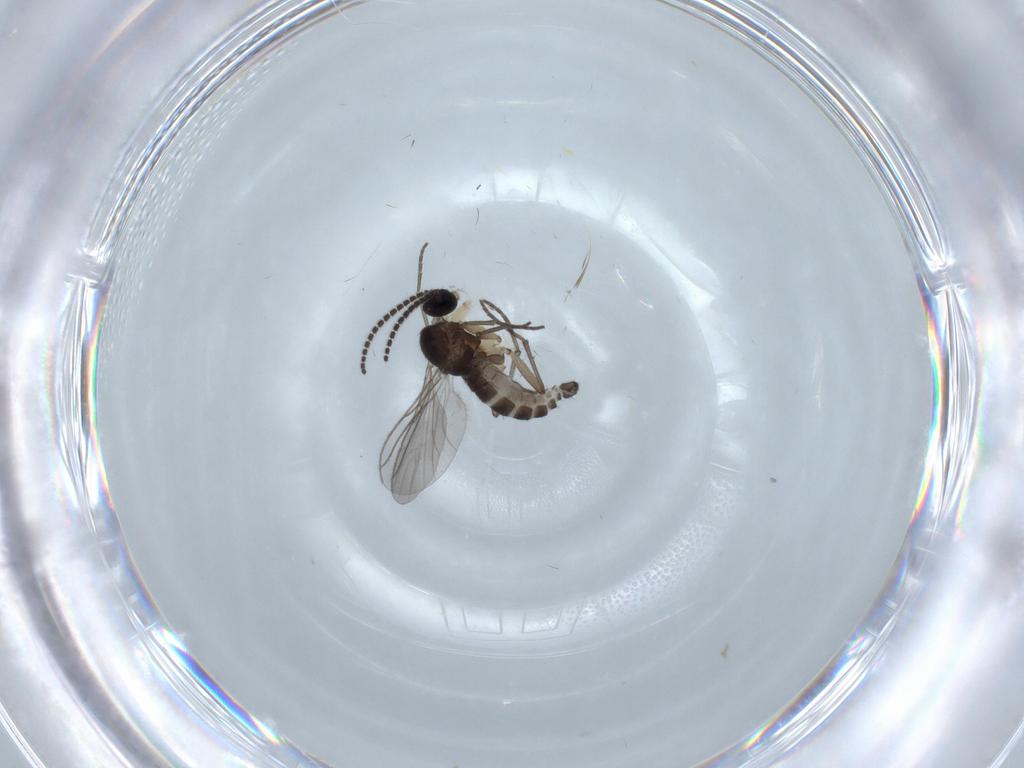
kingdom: Animalia
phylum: Arthropoda
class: Insecta
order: Diptera
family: Sciaridae
